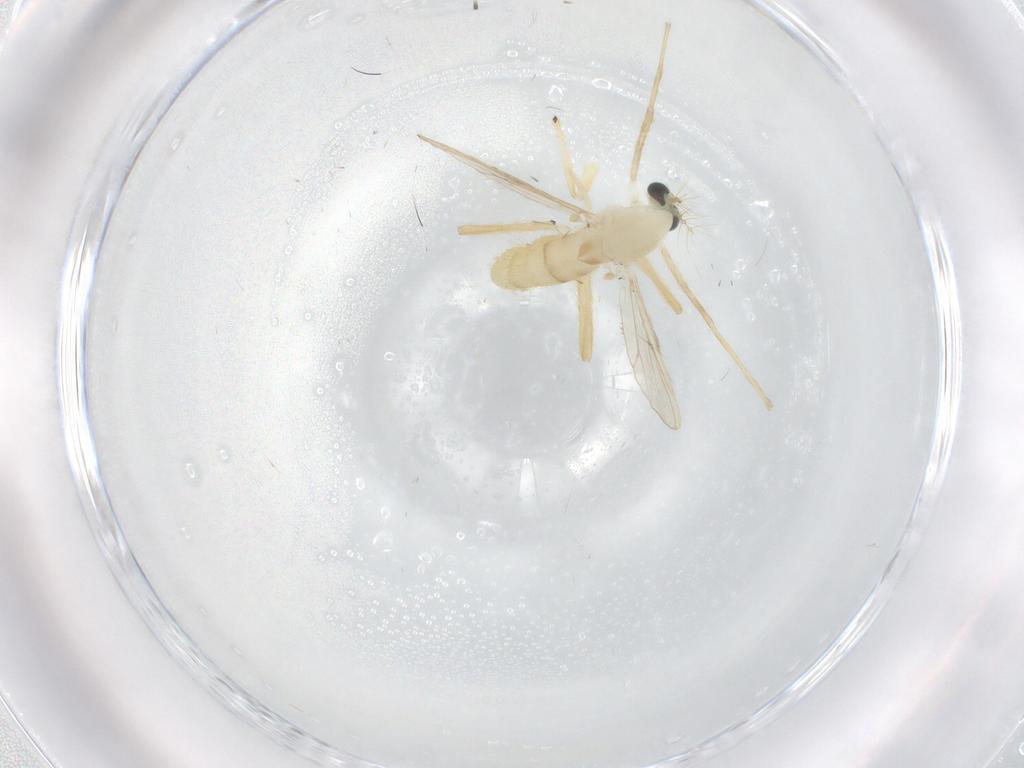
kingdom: Animalia
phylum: Arthropoda
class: Insecta
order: Diptera
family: Chironomidae
